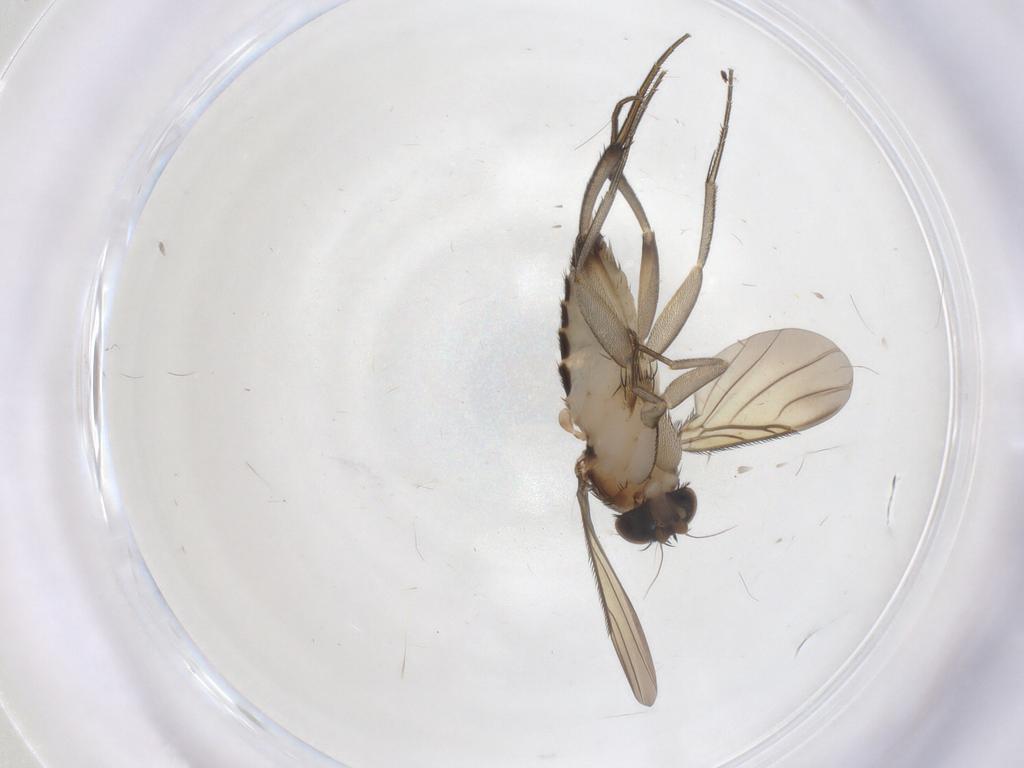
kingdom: Animalia
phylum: Arthropoda
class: Insecta
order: Diptera
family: Phoridae
